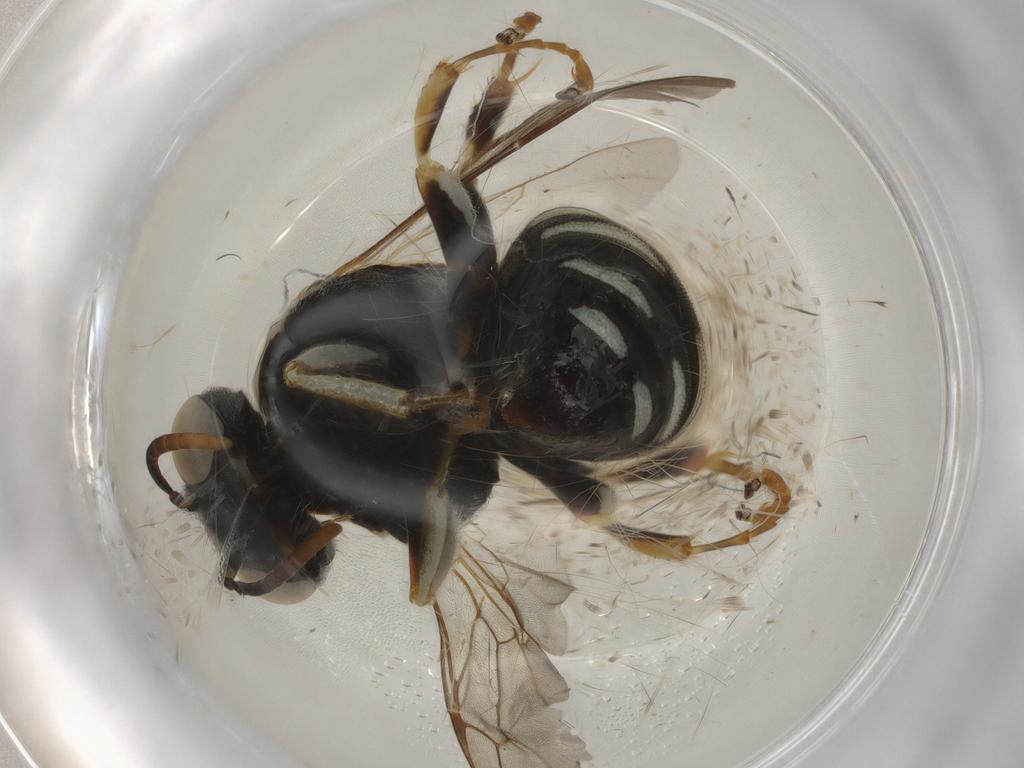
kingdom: Animalia
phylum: Arthropoda
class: Insecta
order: Hymenoptera
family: Crabronidae
